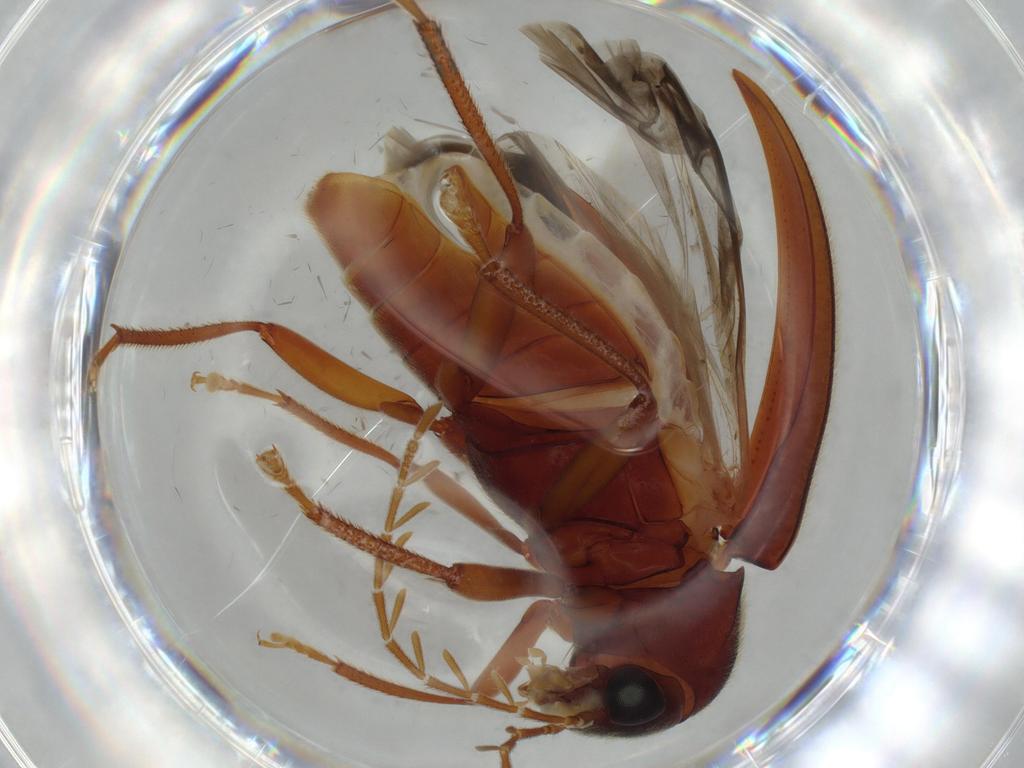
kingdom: Animalia
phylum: Arthropoda
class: Insecta
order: Coleoptera
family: Ptilodactylidae
